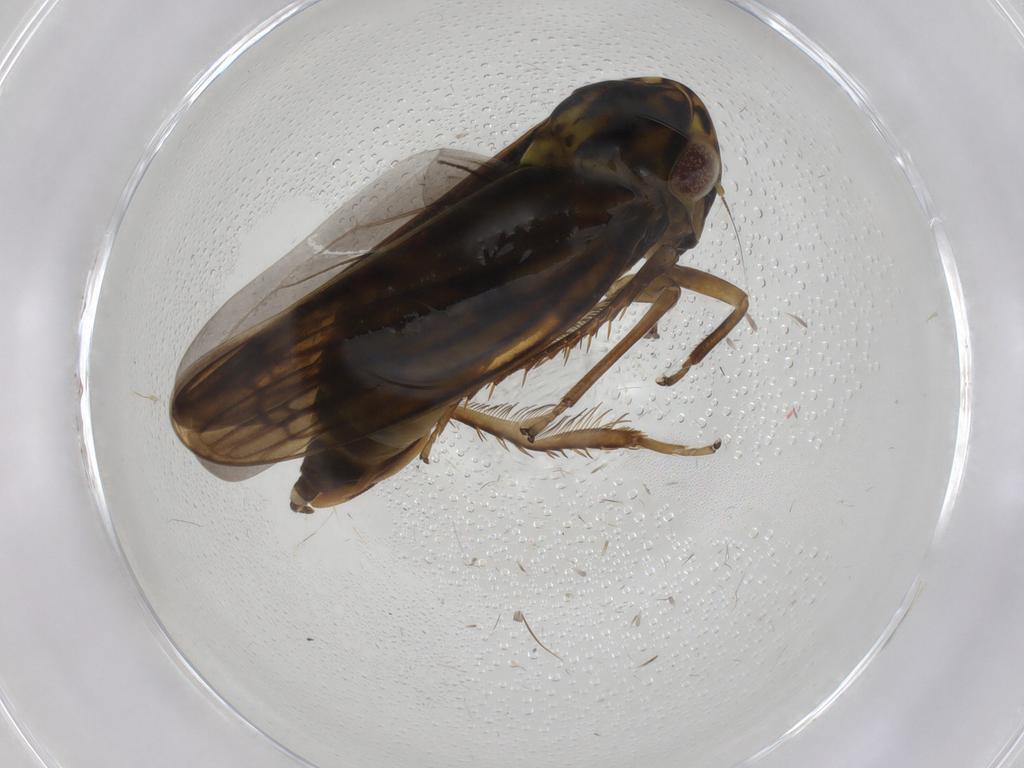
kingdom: Animalia
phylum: Arthropoda
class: Insecta
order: Hemiptera
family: Cicadellidae
